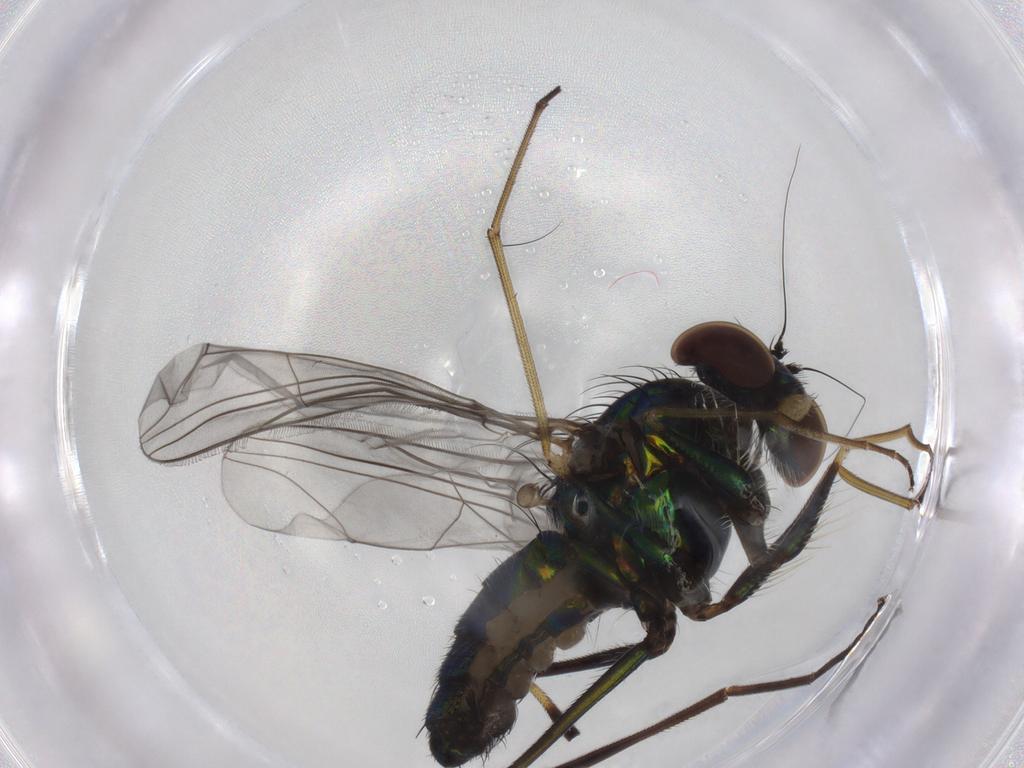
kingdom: Animalia
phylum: Arthropoda
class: Insecta
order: Diptera
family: Dolichopodidae
